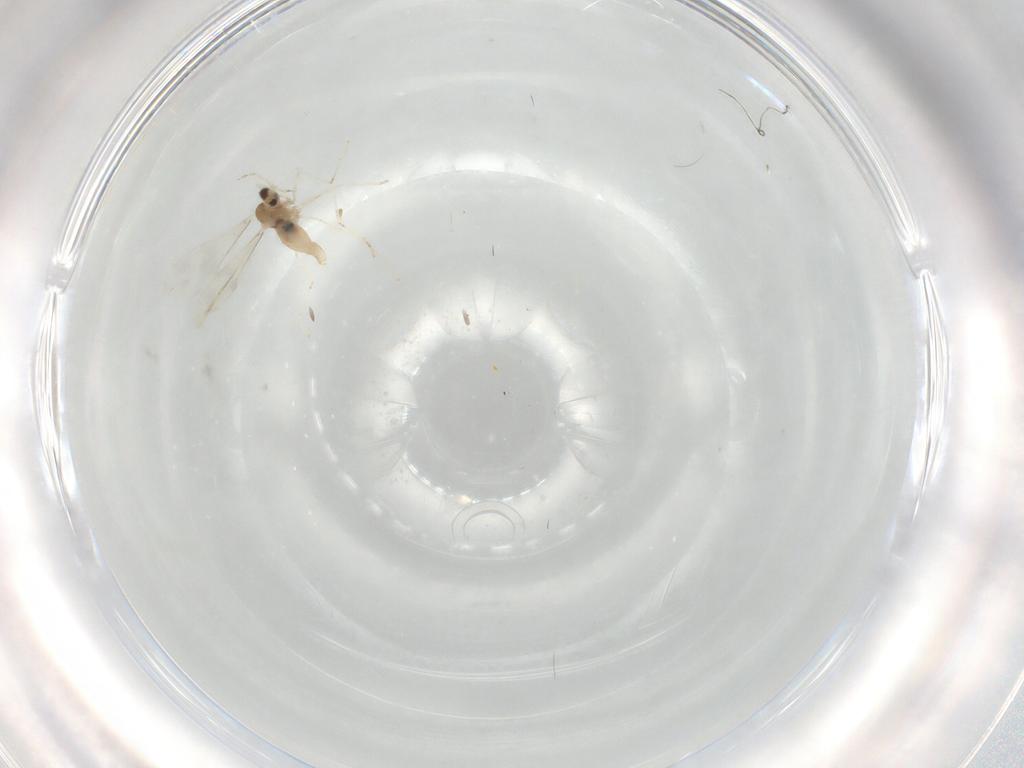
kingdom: Animalia
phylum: Arthropoda
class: Insecta
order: Diptera
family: Cecidomyiidae
